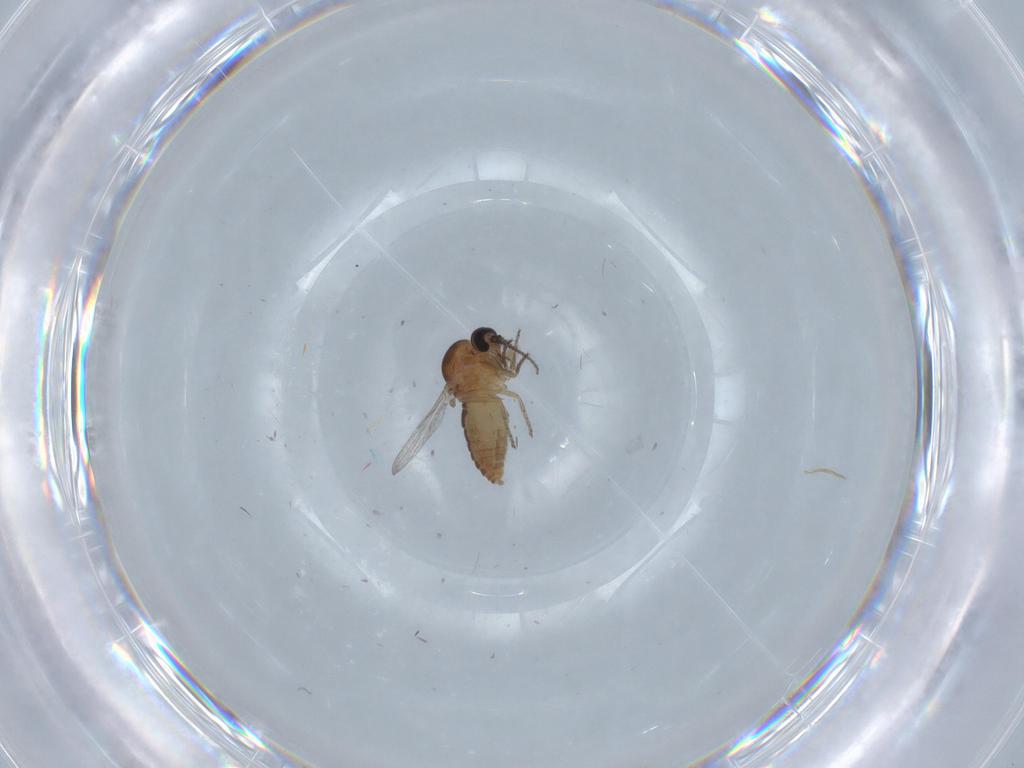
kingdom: Animalia
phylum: Arthropoda
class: Insecta
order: Diptera
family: Ceratopogonidae
